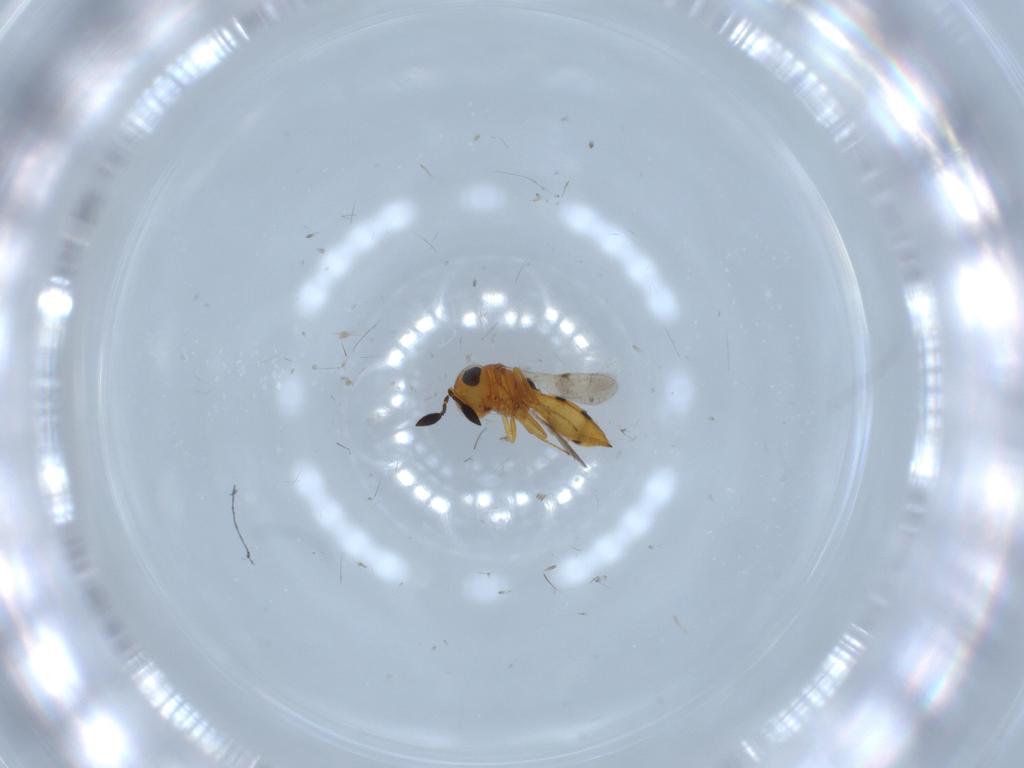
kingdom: Animalia
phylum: Arthropoda
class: Insecta
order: Hymenoptera
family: Scelionidae
